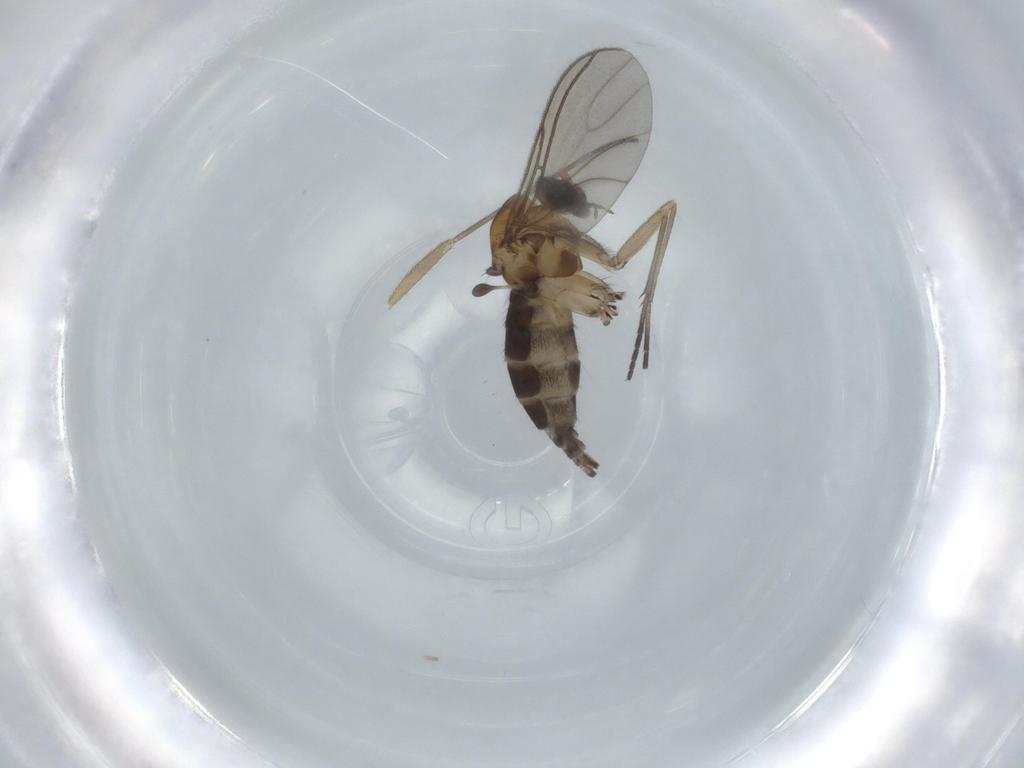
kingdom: Animalia
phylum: Arthropoda
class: Insecta
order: Diptera
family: Sciaridae
